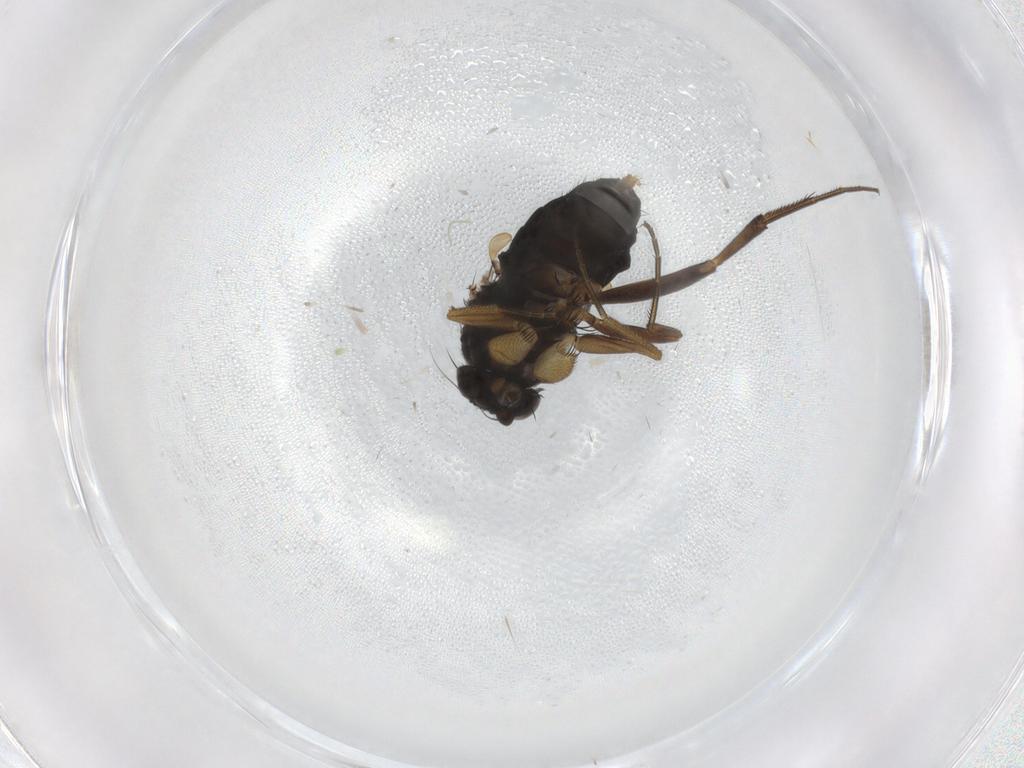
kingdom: Animalia
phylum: Arthropoda
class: Insecta
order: Diptera
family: Phoridae
